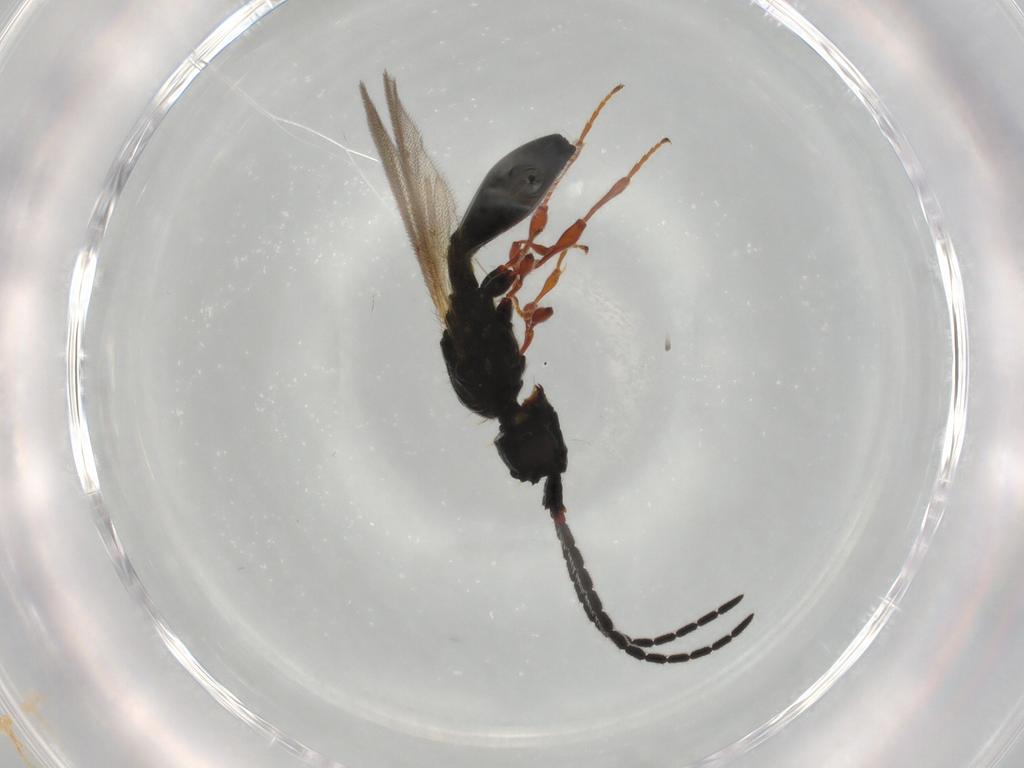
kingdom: Animalia
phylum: Arthropoda
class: Insecta
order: Hymenoptera
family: Diapriidae
